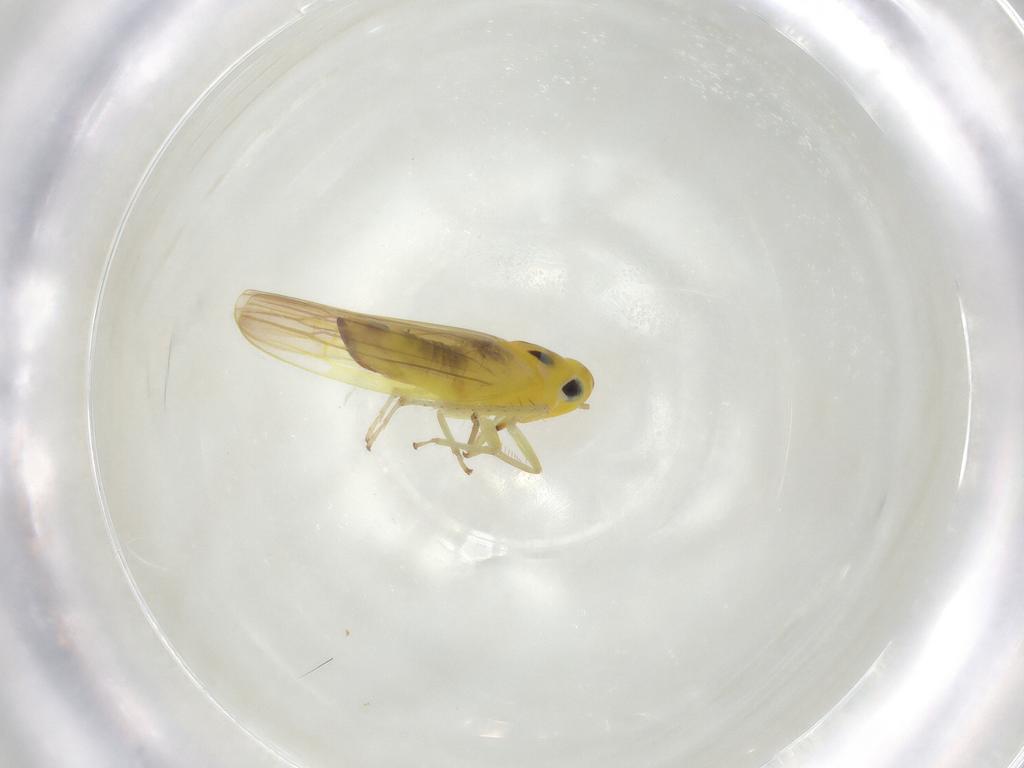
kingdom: Animalia
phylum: Arthropoda
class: Insecta
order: Hemiptera
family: Cicadellidae
